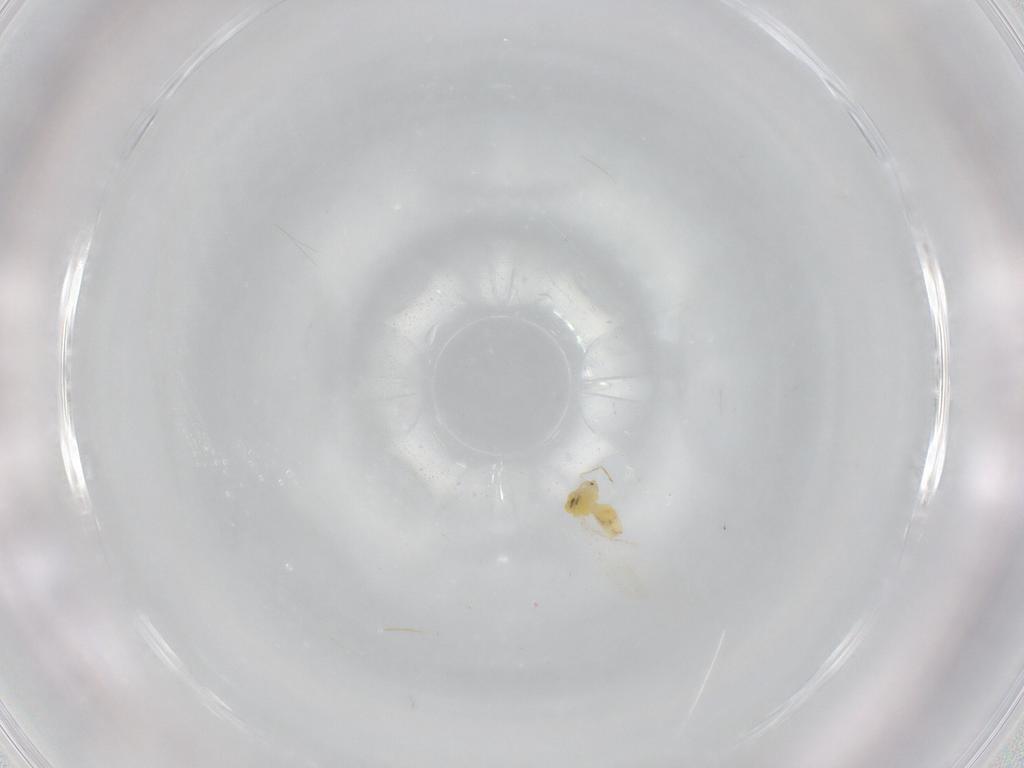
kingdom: Animalia
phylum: Arthropoda
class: Insecta
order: Hemiptera
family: Aleyrodidae
